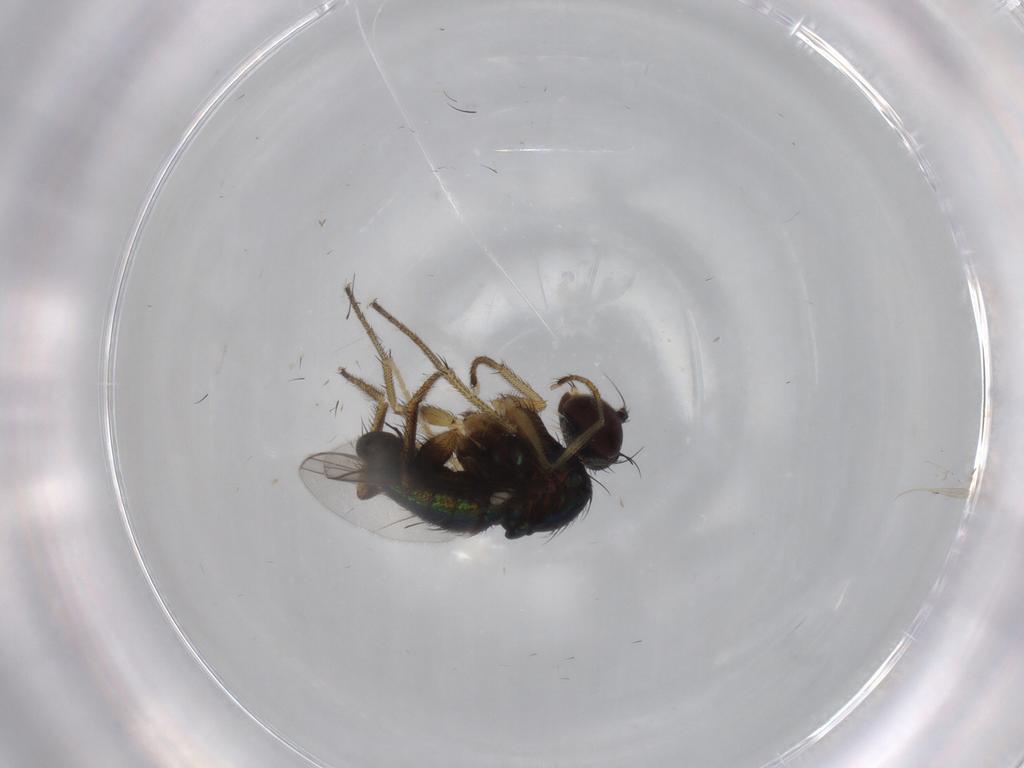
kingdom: Animalia
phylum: Arthropoda
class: Insecta
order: Diptera
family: Dolichopodidae
